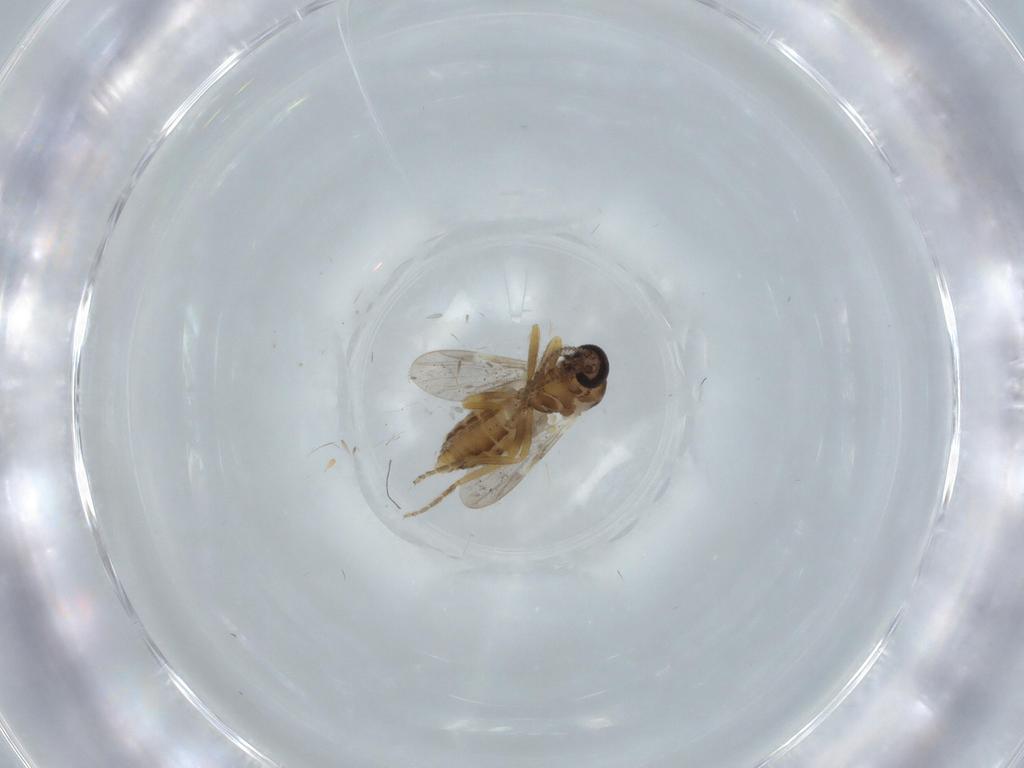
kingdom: Animalia
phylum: Arthropoda
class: Insecta
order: Diptera
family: Ceratopogonidae
